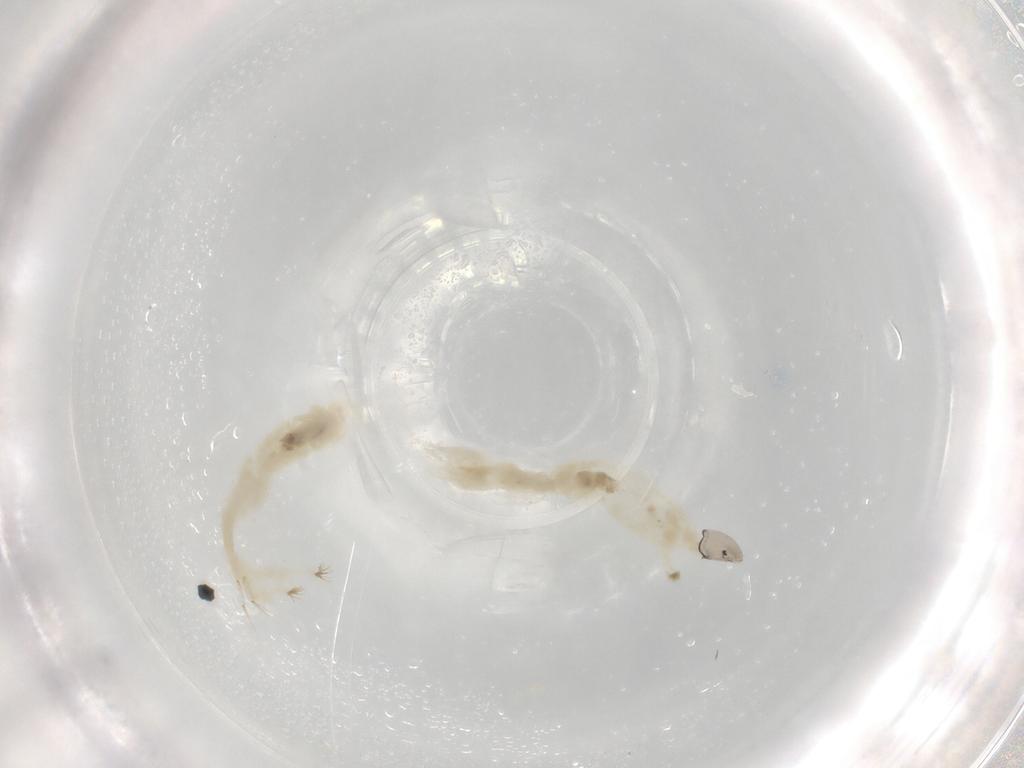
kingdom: Animalia
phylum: Arthropoda
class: Insecta
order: Diptera
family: Chironomidae
